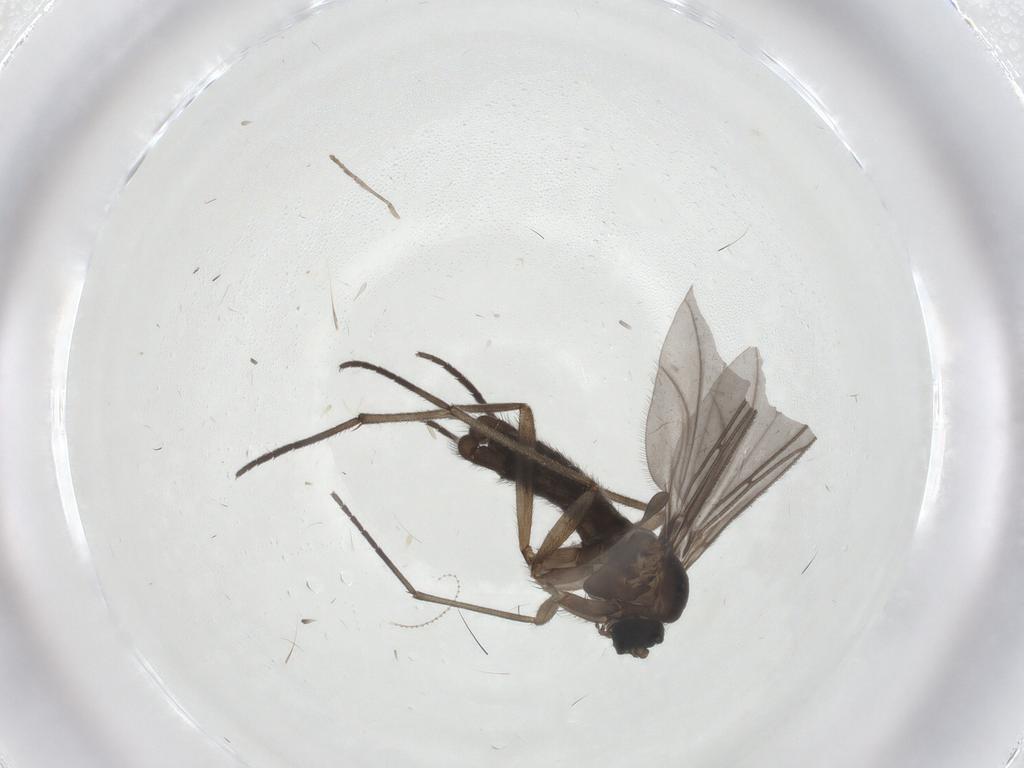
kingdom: Animalia
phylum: Arthropoda
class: Insecta
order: Diptera
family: Sciaridae
